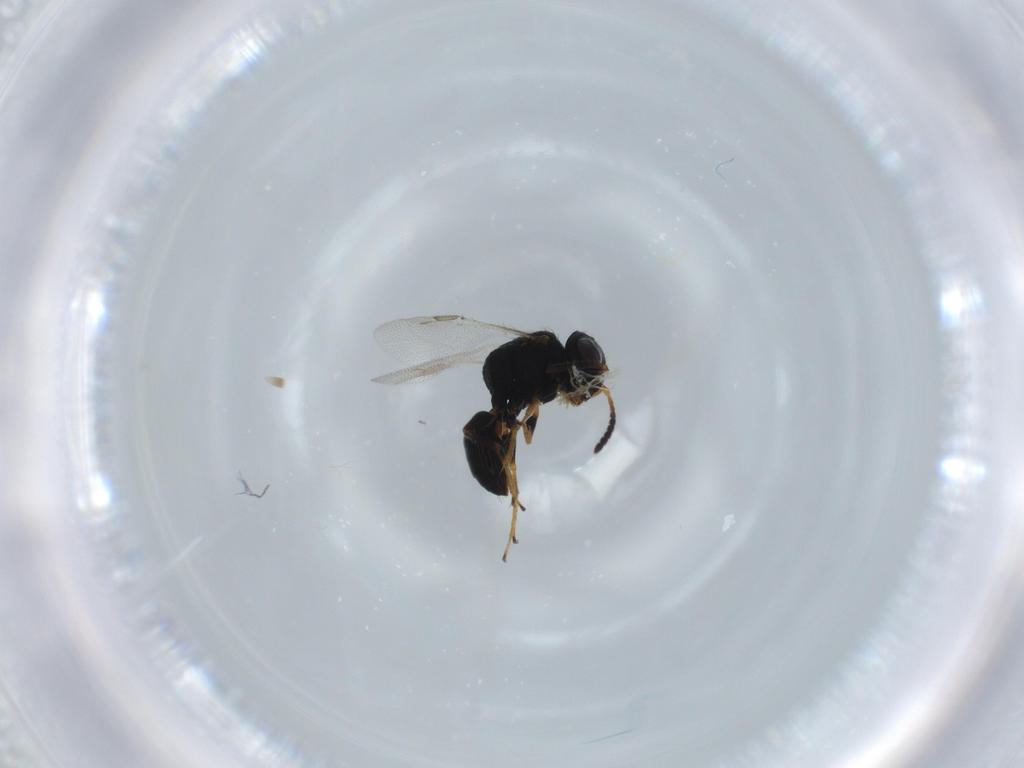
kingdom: Animalia
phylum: Arthropoda
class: Insecta
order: Hymenoptera
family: Dryinidae
